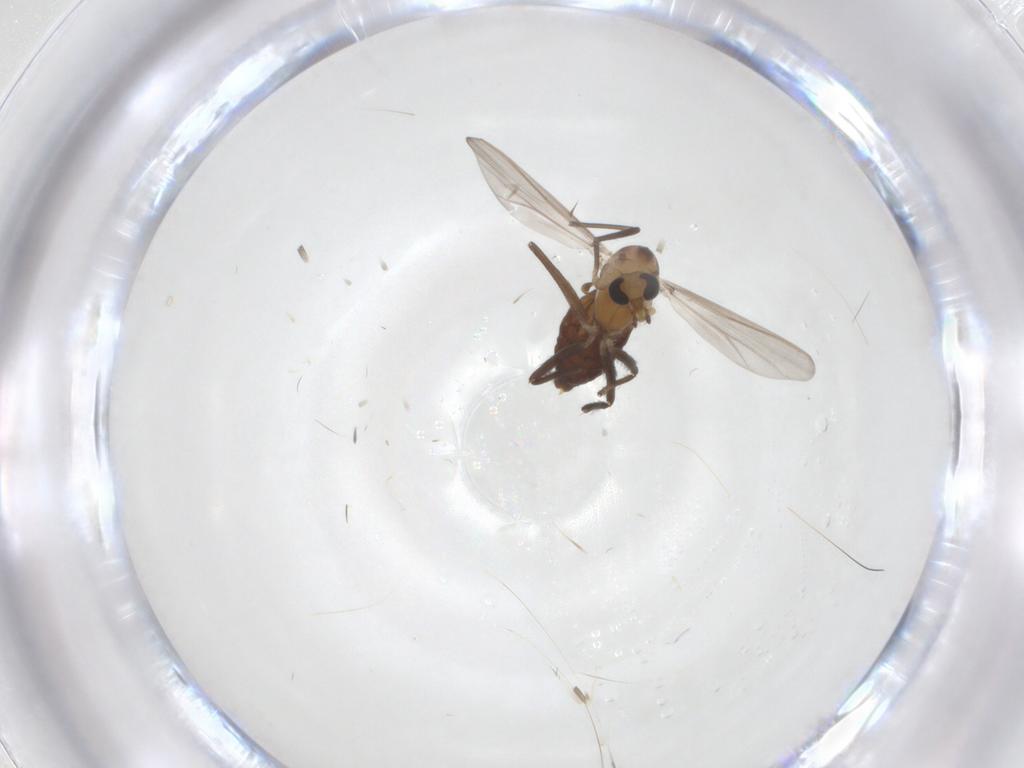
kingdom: Animalia
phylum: Arthropoda
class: Insecta
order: Diptera
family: Chironomidae
